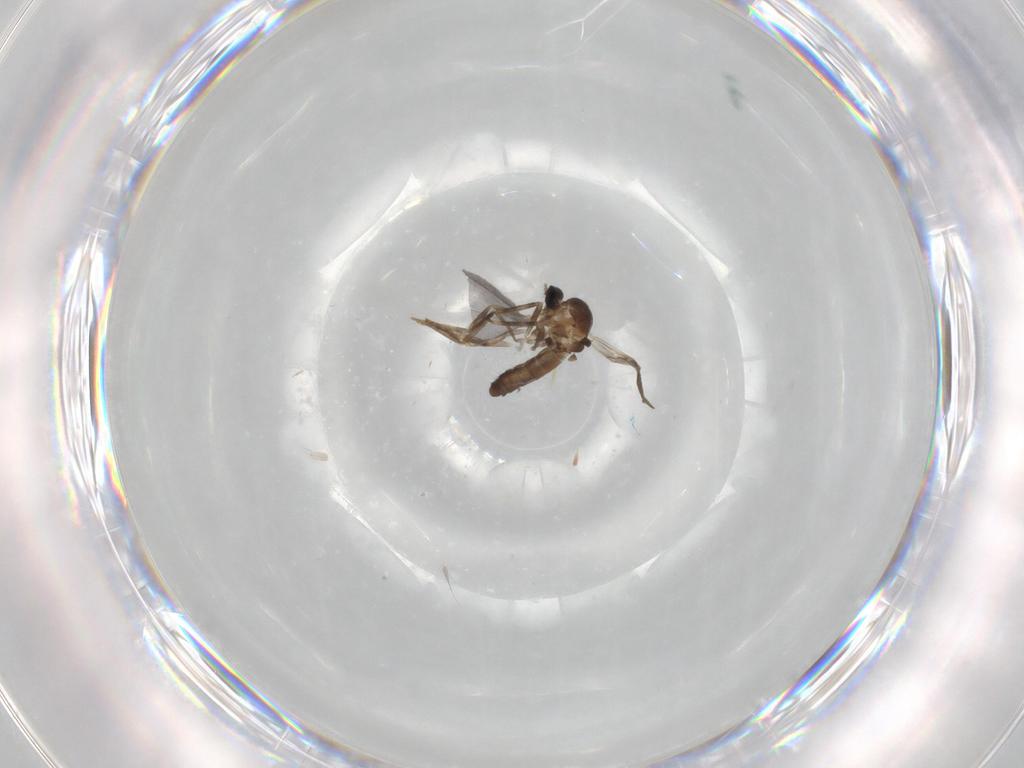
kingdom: Animalia
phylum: Arthropoda
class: Insecta
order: Diptera
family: Ceratopogonidae
